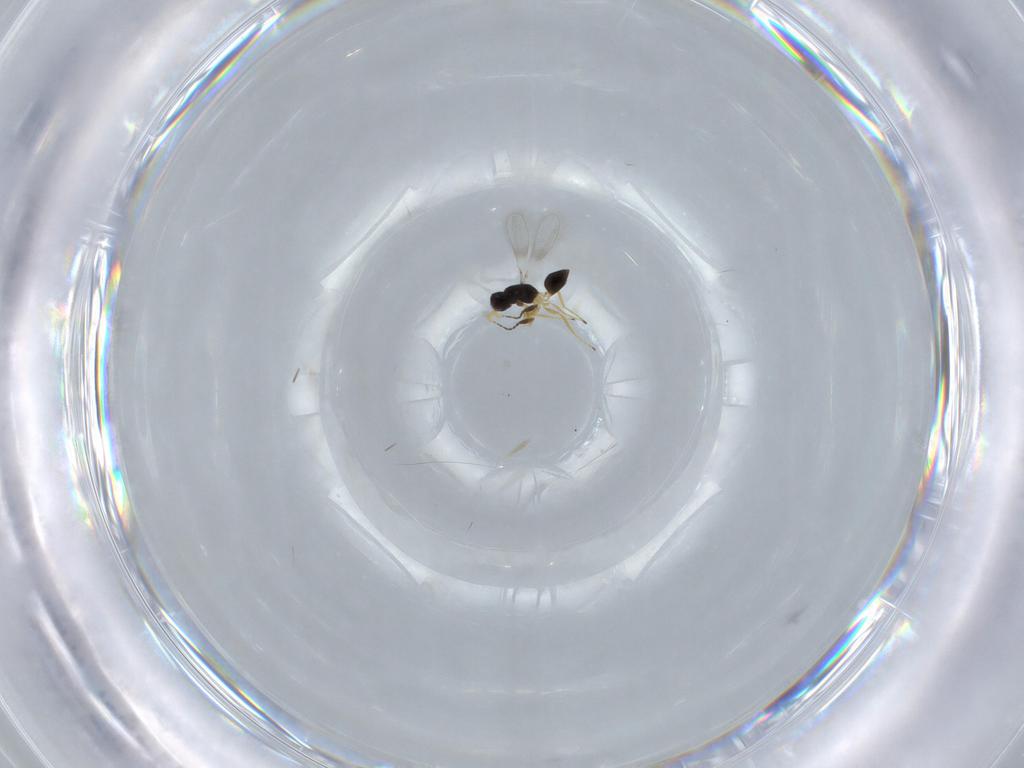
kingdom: Animalia
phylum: Arthropoda
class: Insecta
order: Hymenoptera
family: Mymaridae
